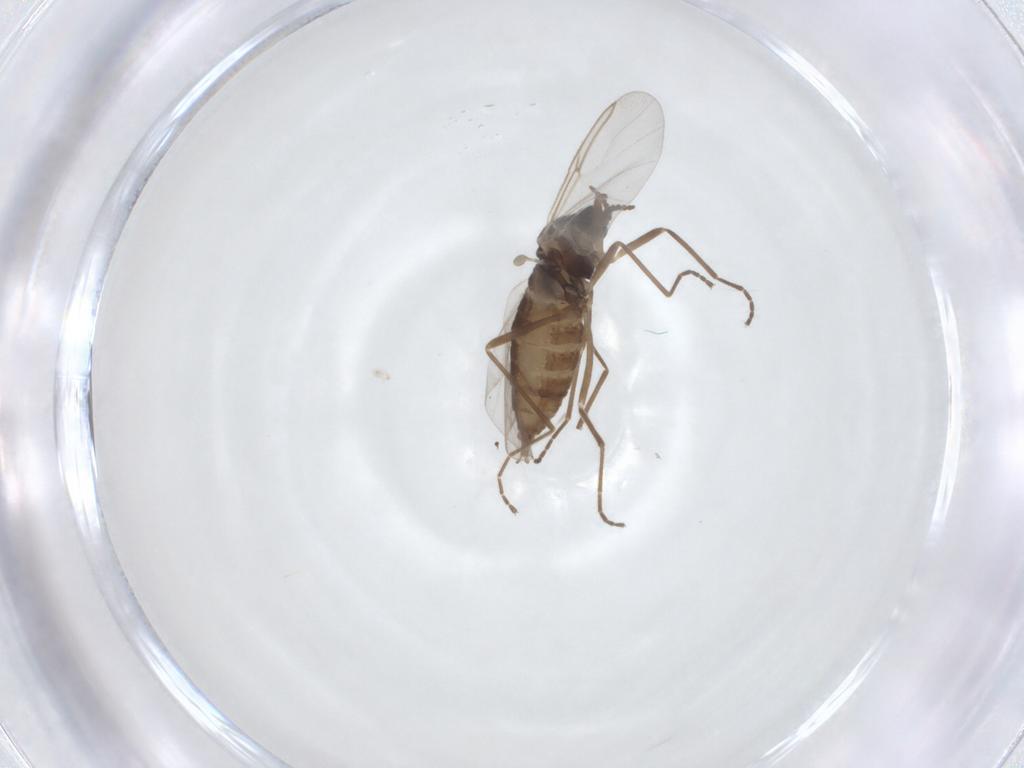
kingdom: Animalia
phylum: Arthropoda
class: Insecta
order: Diptera
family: Cecidomyiidae
